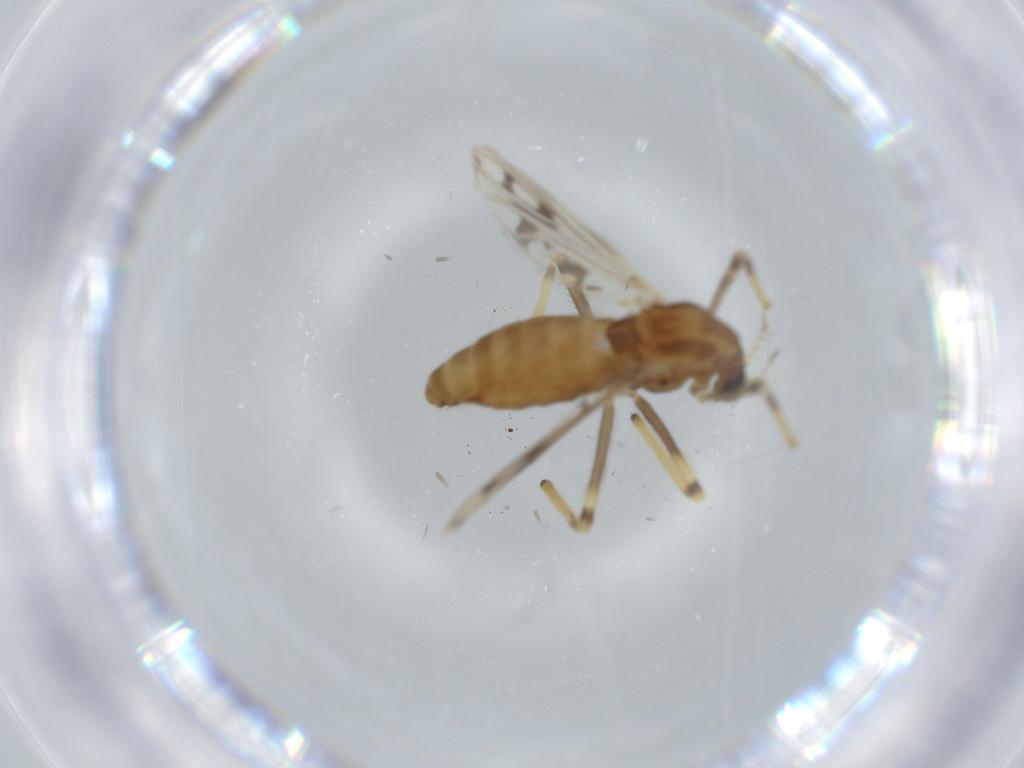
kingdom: Animalia
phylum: Arthropoda
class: Insecta
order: Diptera
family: Chironomidae
